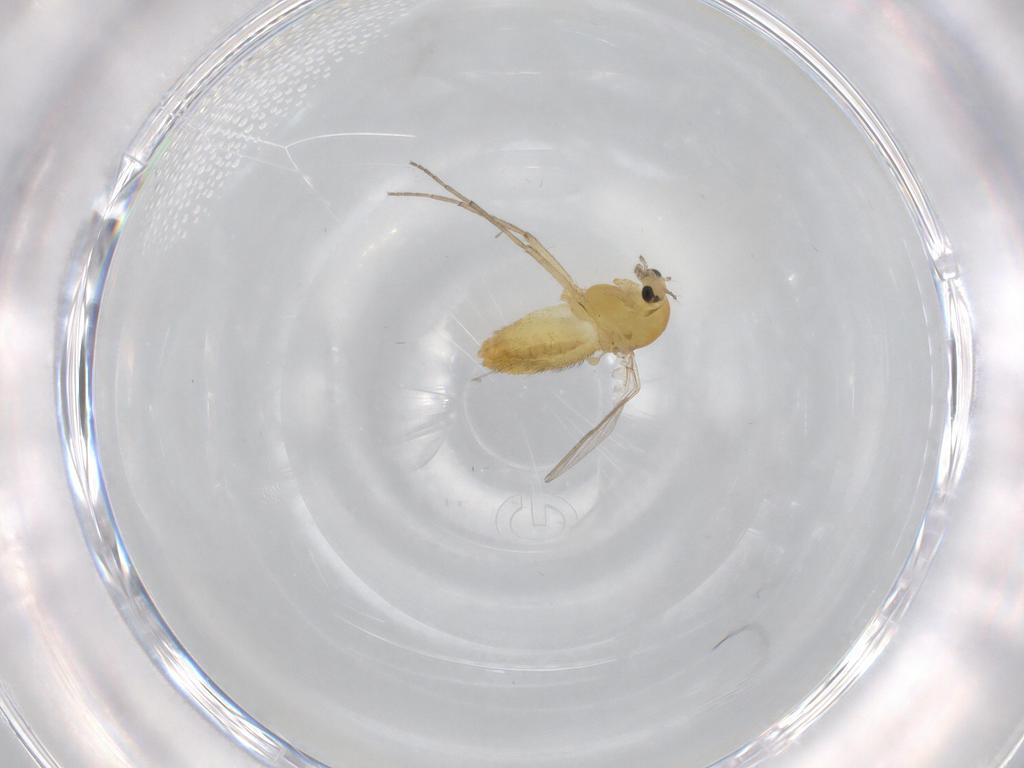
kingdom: Animalia
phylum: Arthropoda
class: Insecta
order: Diptera
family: Chironomidae
